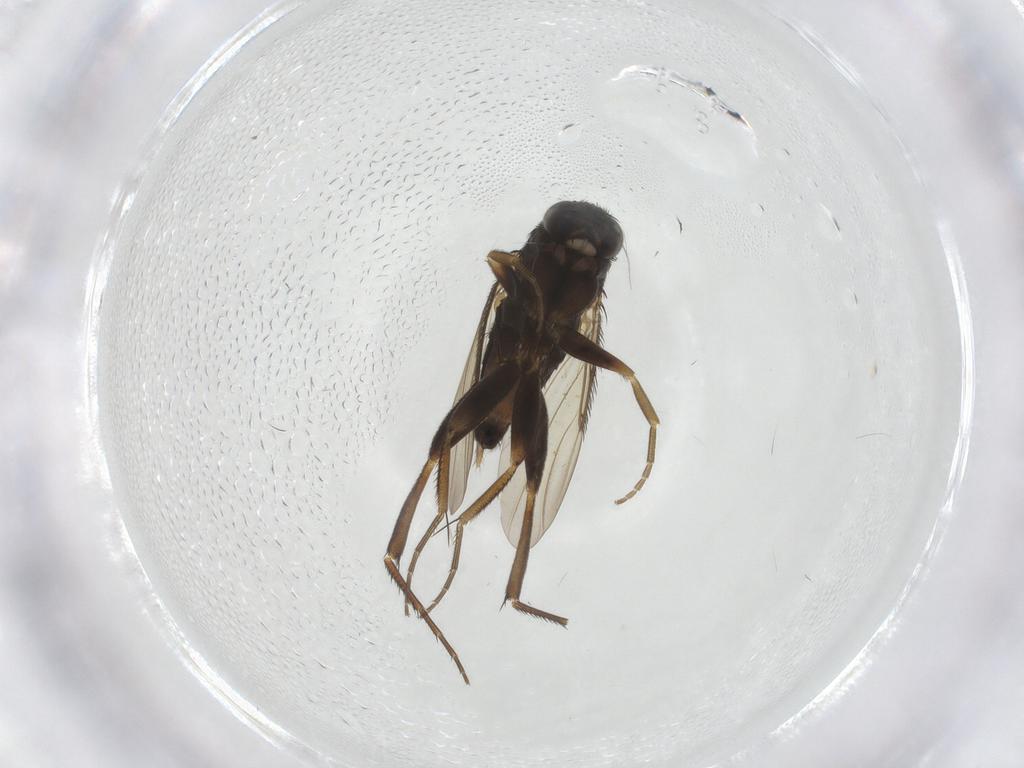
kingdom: Animalia
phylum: Arthropoda
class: Insecta
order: Diptera
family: Phoridae
